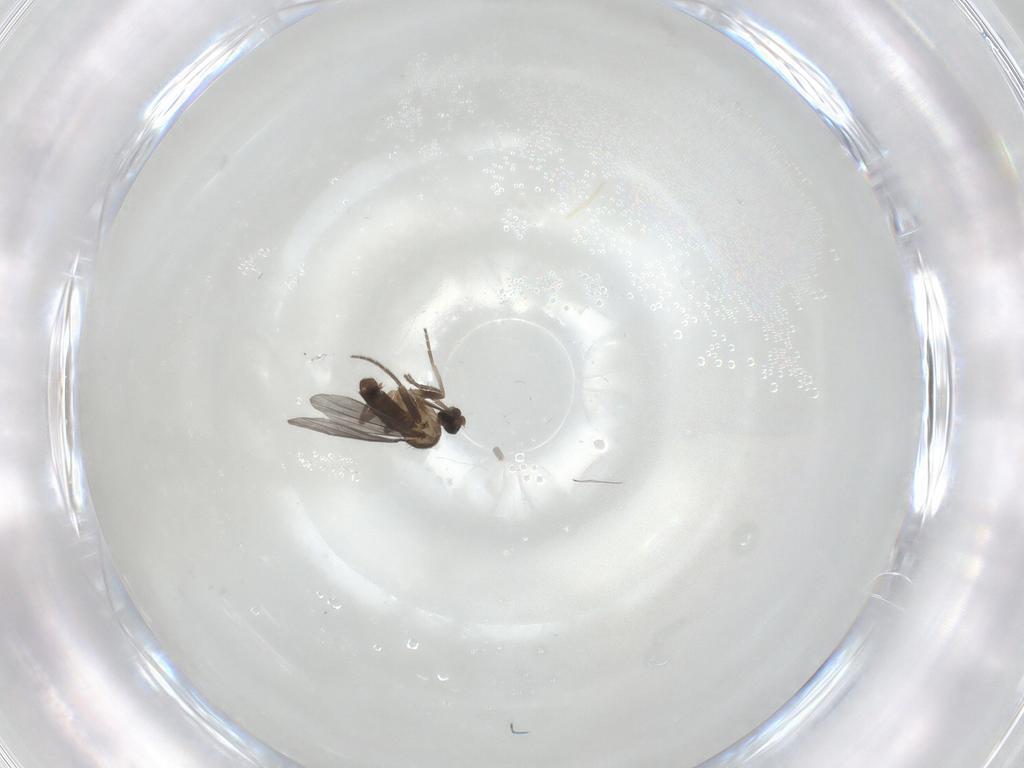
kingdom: Animalia
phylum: Arthropoda
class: Insecta
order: Diptera
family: Phoridae
